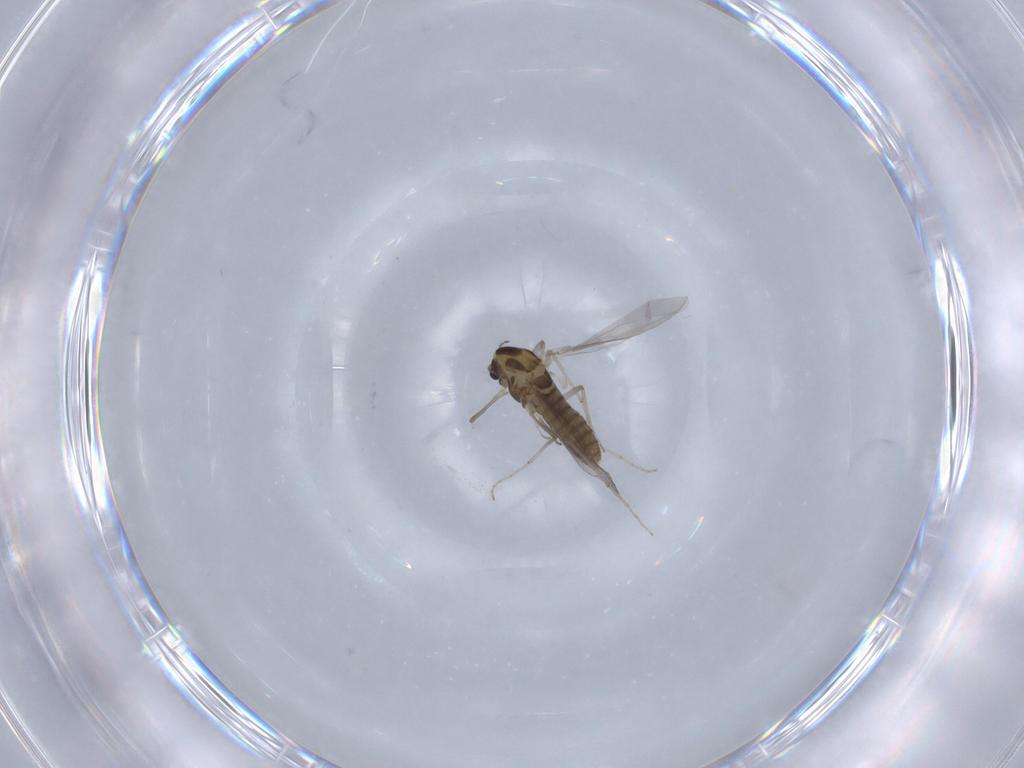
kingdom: Animalia
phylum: Arthropoda
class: Insecta
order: Diptera
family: Chironomidae
